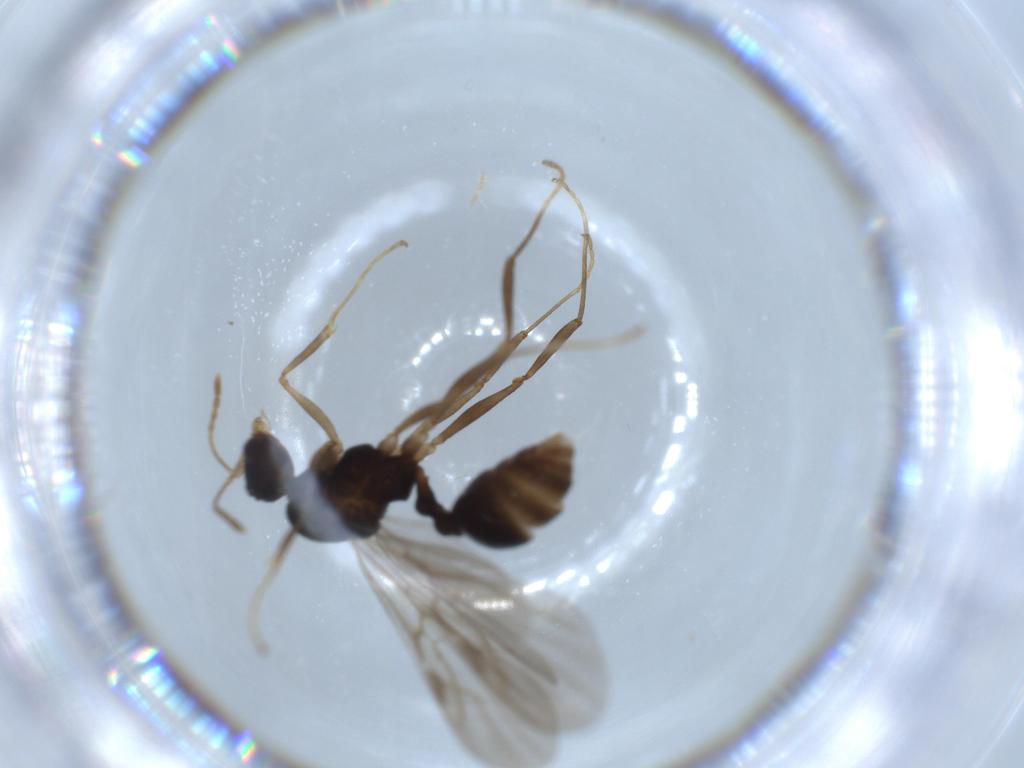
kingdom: Animalia
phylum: Arthropoda
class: Insecta
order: Hymenoptera
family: Formicidae
